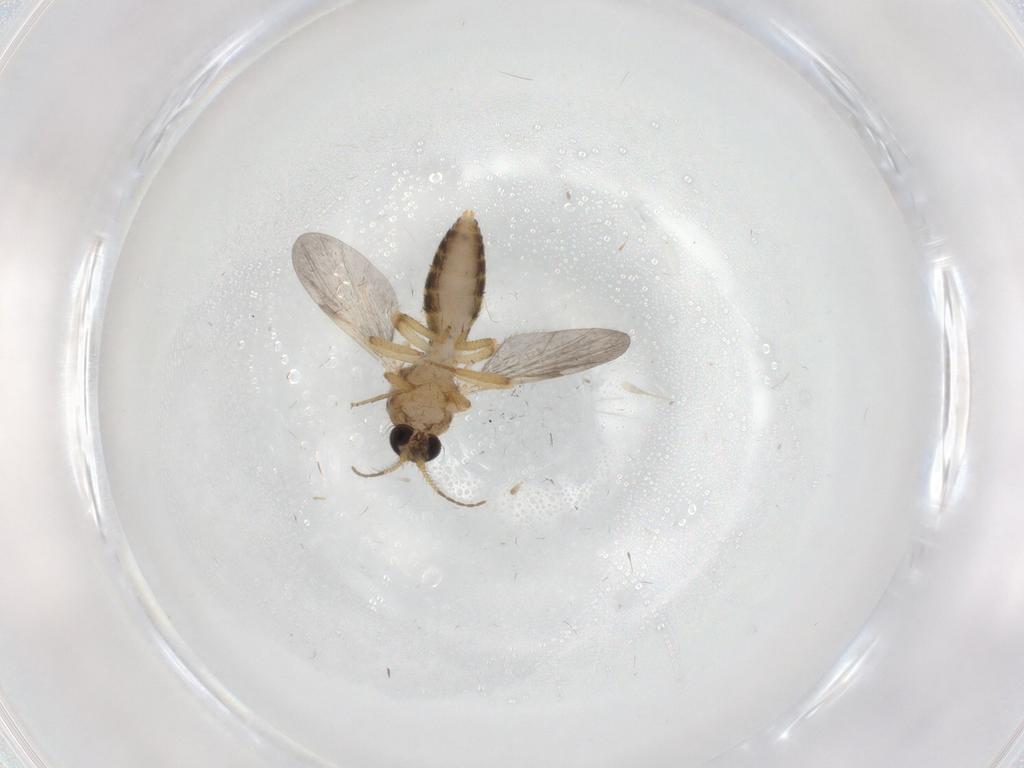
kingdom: Animalia
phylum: Arthropoda
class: Insecta
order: Diptera
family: Ceratopogonidae
